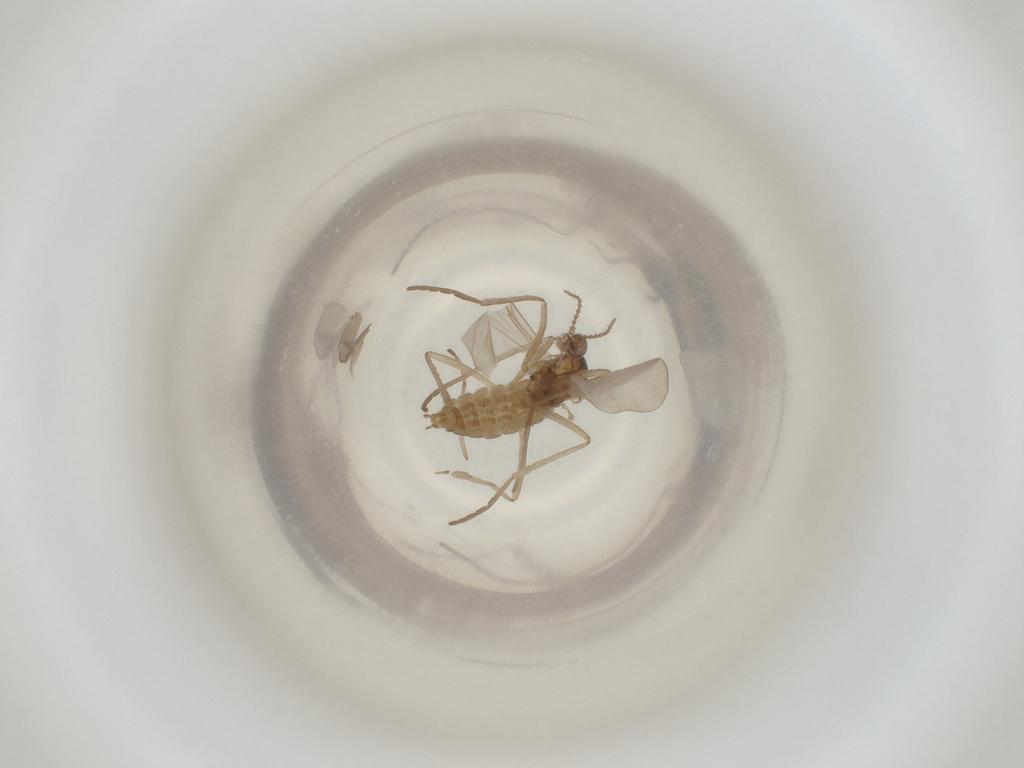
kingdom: Animalia
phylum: Arthropoda
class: Insecta
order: Diptera
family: Cecidomyiidae
